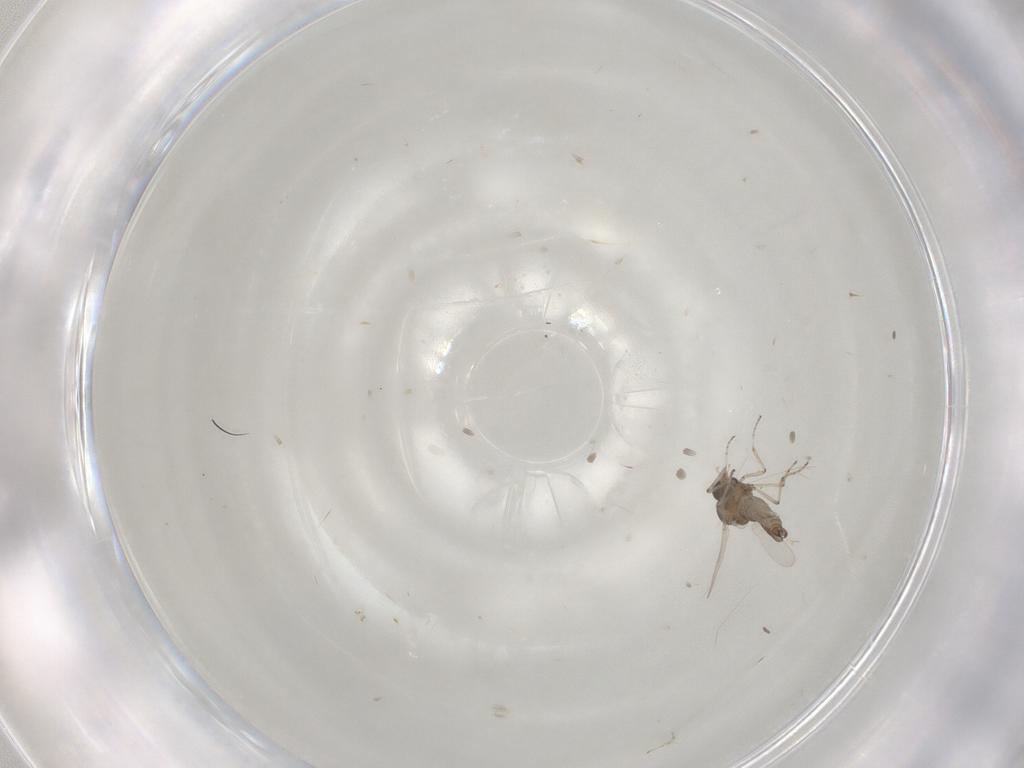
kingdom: Animalia
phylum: Arthropoda
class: Insecta
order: Diptera
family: Ceratopogonidae
